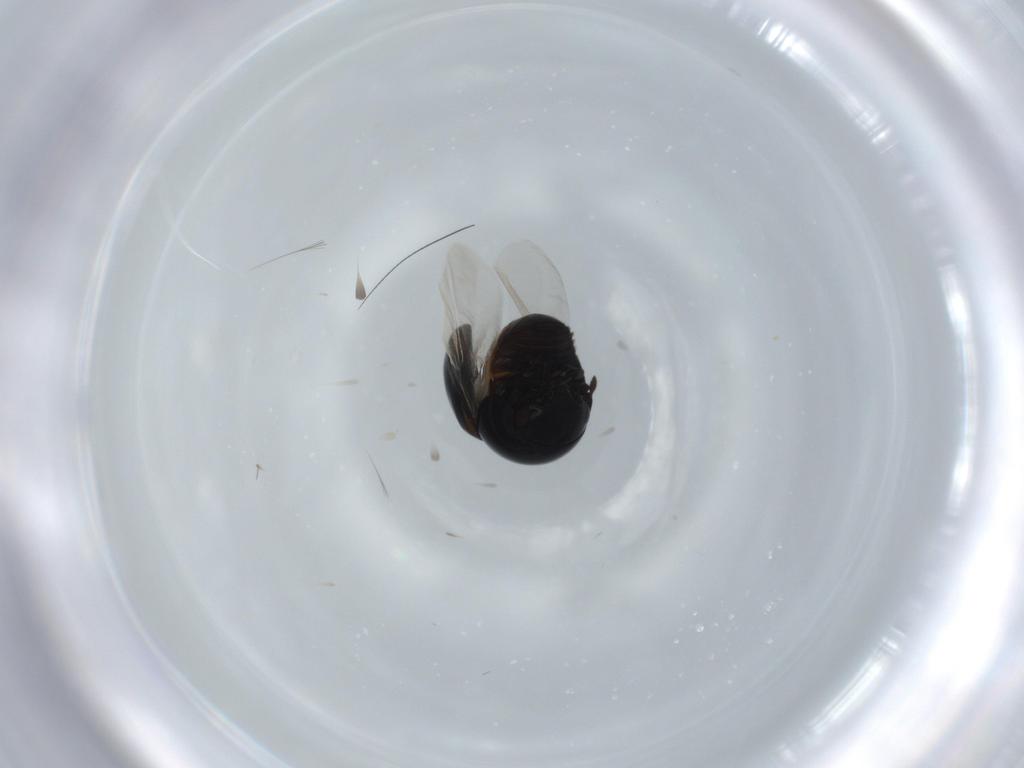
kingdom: Animalia
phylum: Arthropoda
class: Insecta
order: Coleoptera
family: Cybocephalidae
